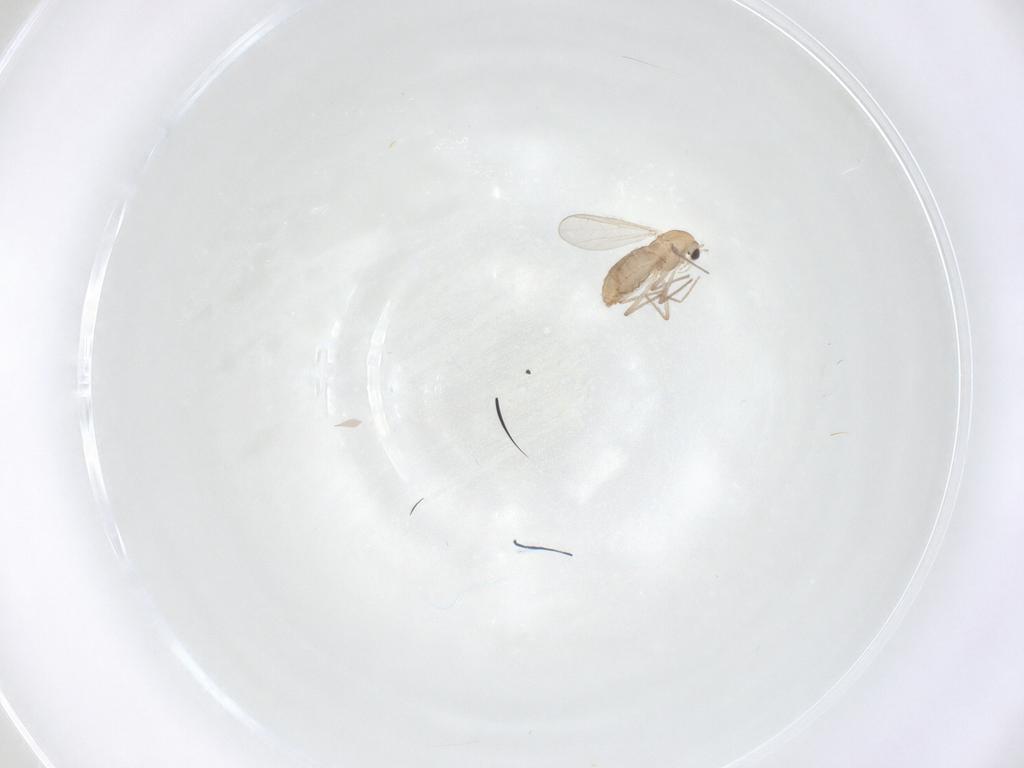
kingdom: Animalia
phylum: Arthropoda
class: Insecta
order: Diptera
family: Chironomidae
